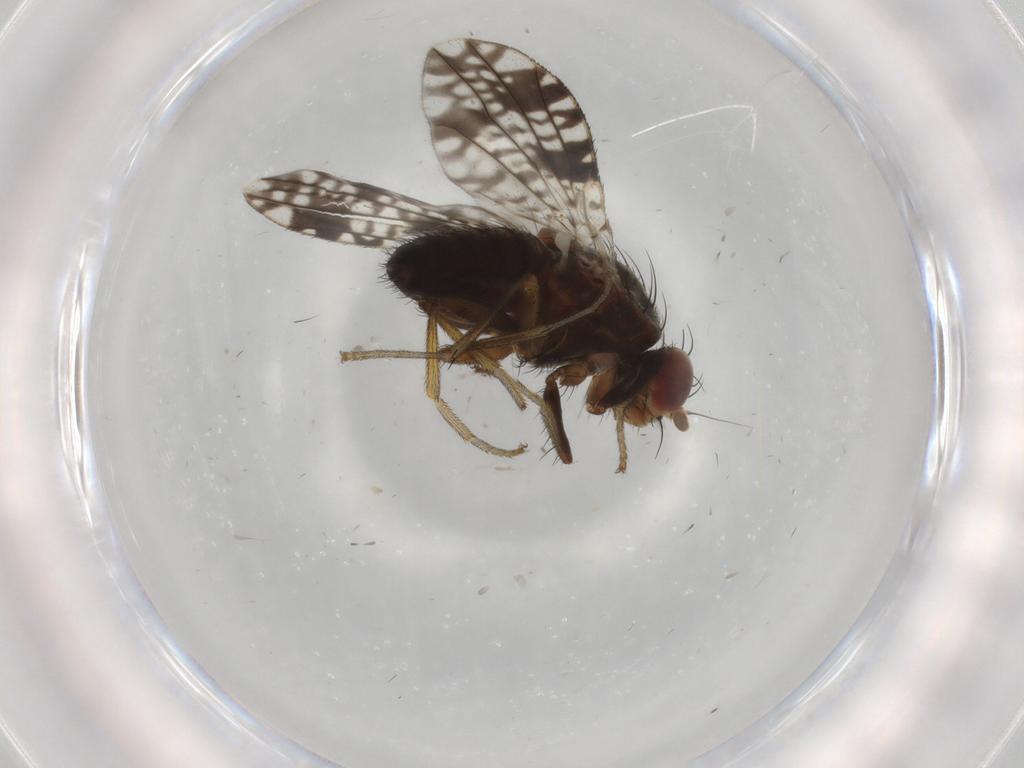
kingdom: Animalia
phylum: Arthropoda
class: Insecta
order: Diptera
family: Tephritidae
